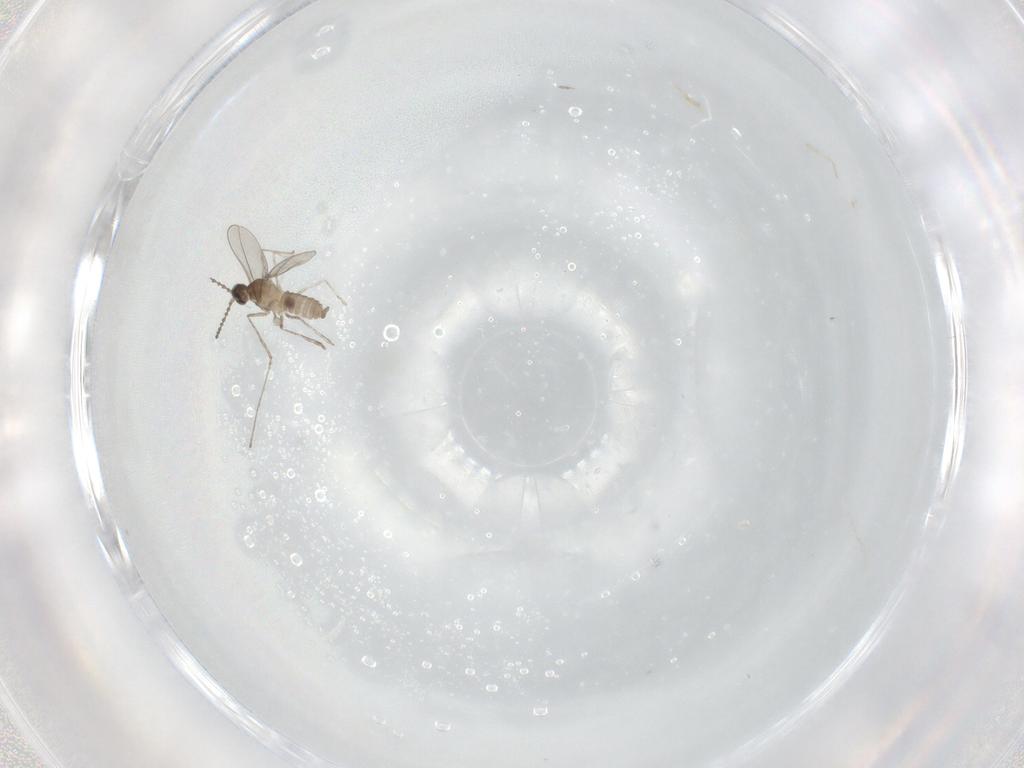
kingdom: Animalia
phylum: Arthropoda
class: Insecta
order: Diptera
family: Cecidomyiidae
